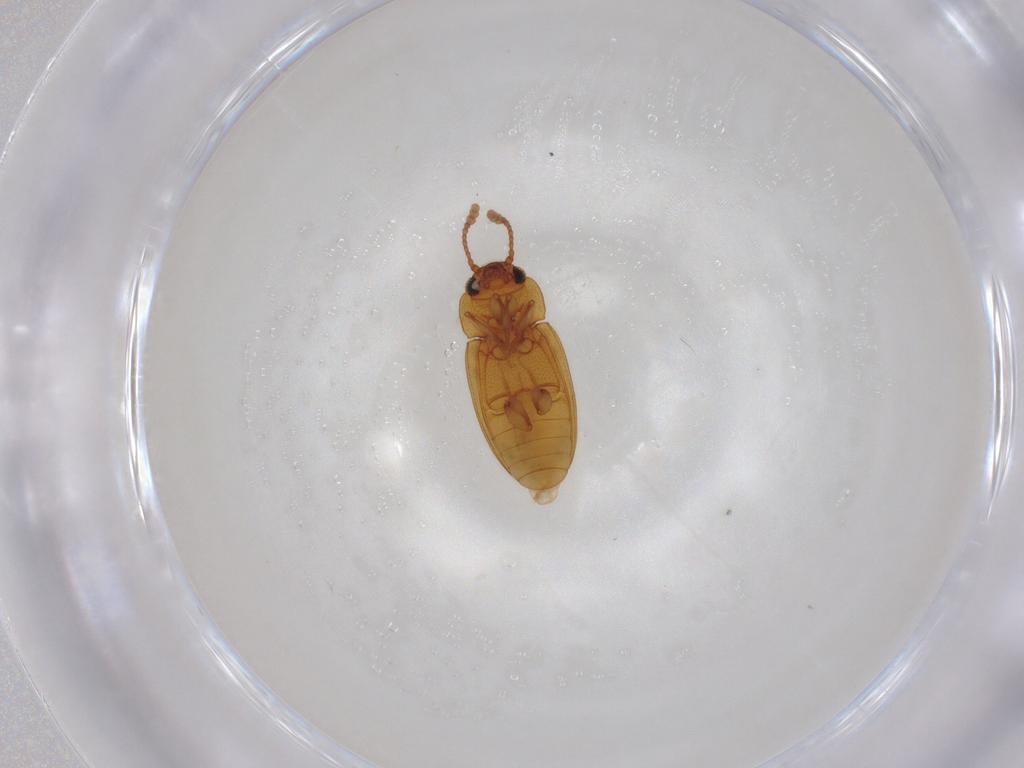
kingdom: Animalia
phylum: Arthropoda
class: Insecta
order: Coleoptera
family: Erotylidae
